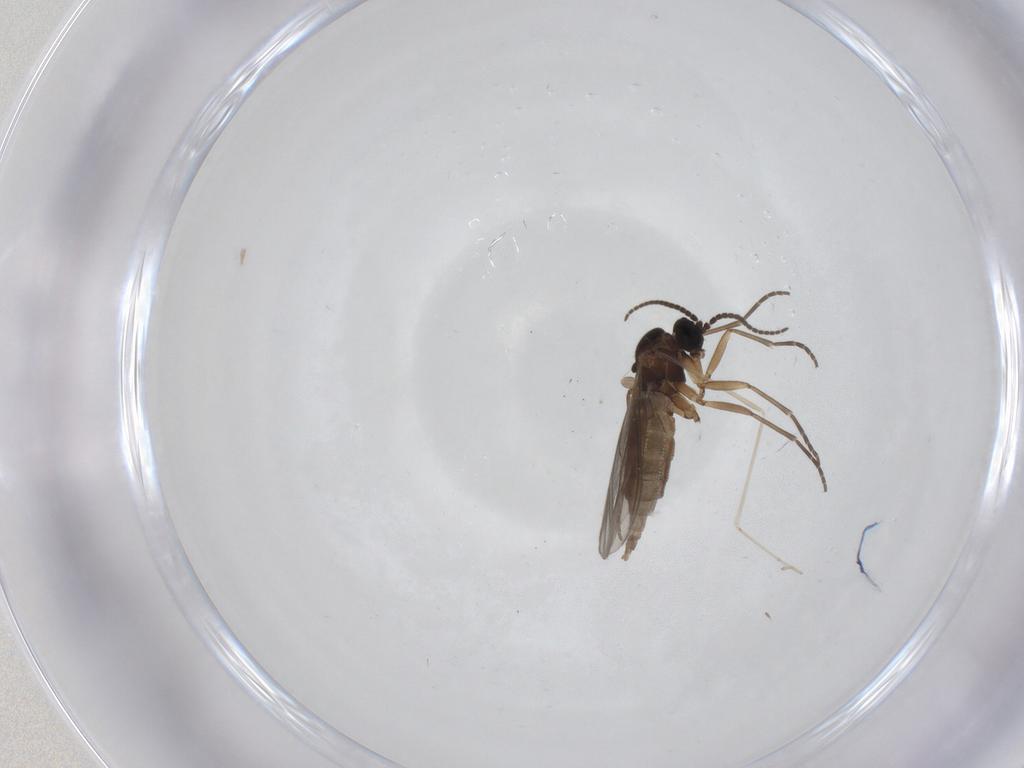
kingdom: Animalia
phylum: Arthropoda
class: Insecta
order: Diptera
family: Sciaridae
